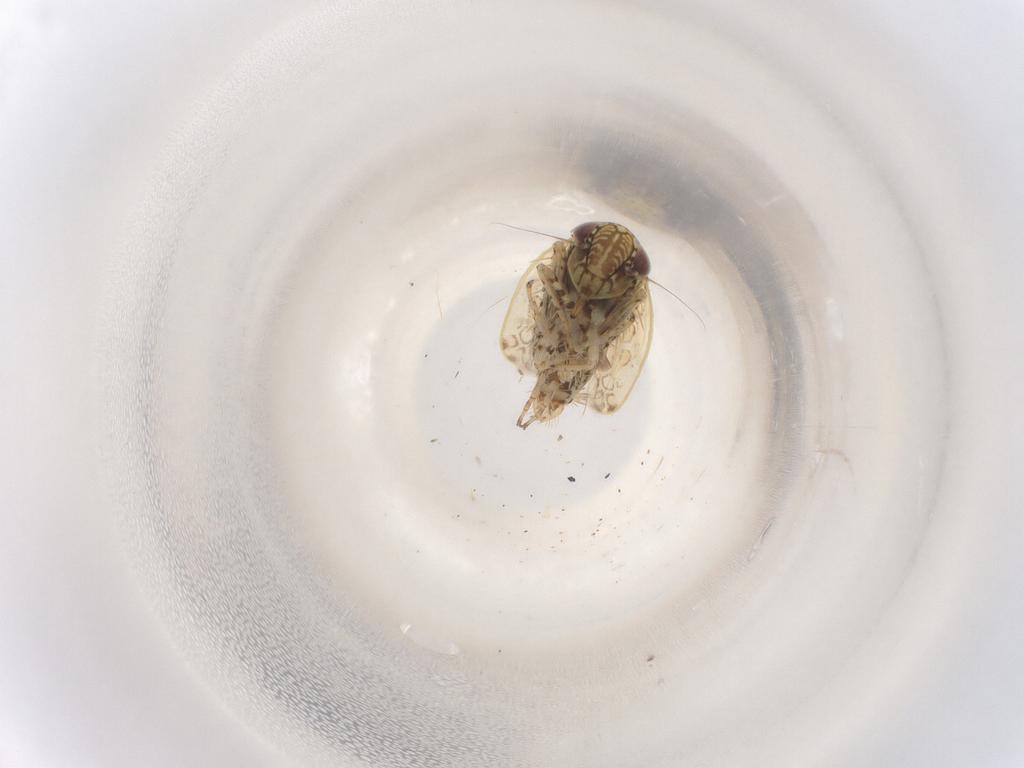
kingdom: Animalia
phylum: Arthropoda
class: Insecta
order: Hemiptera
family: Cicadellidae
